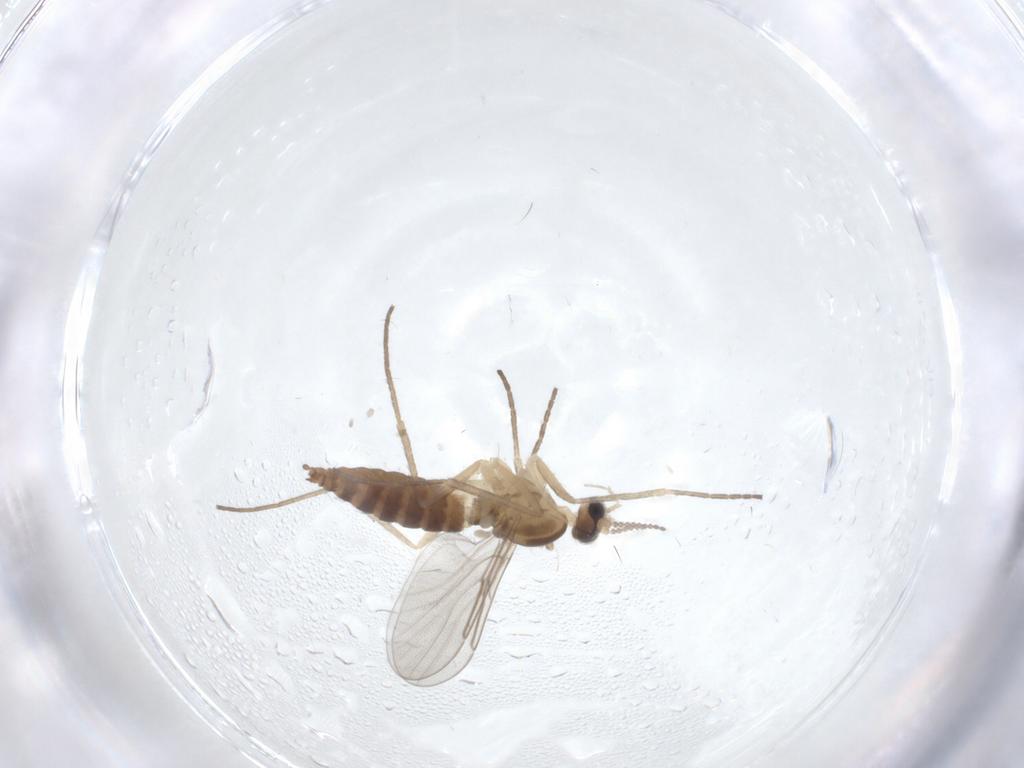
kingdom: Animalia
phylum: Arthropoda
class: Insecta
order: Diptera
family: Cecidomyiidae
